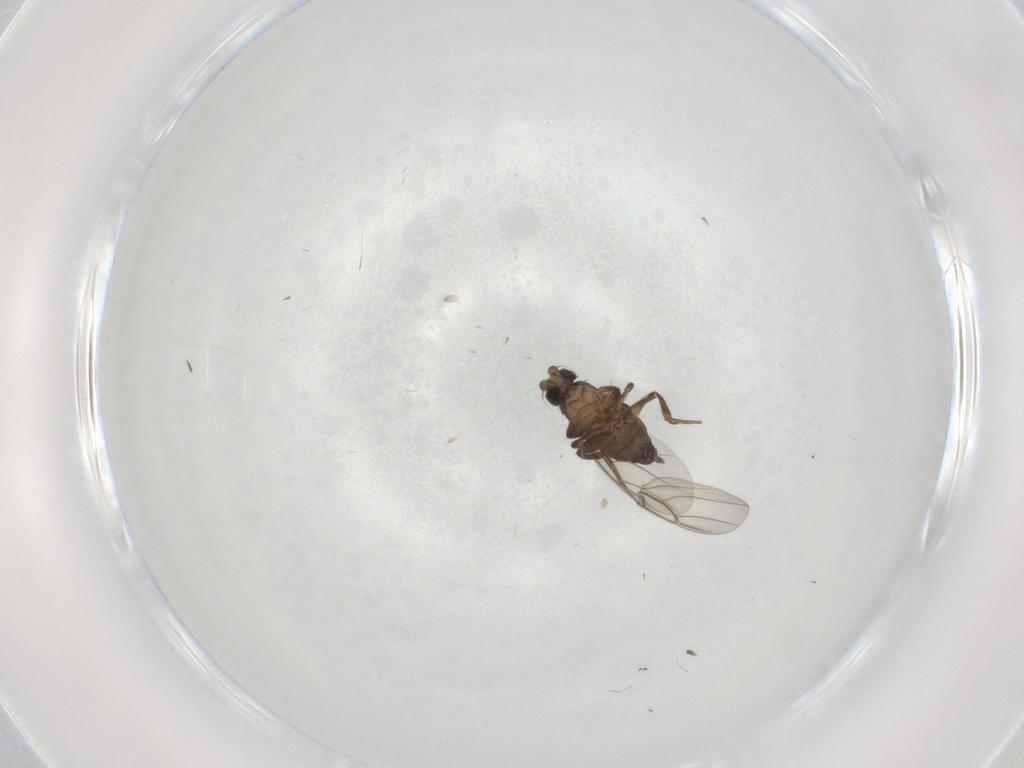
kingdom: Animalia
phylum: Arthropoda
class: Insecta
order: Diptera
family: Phoridae
